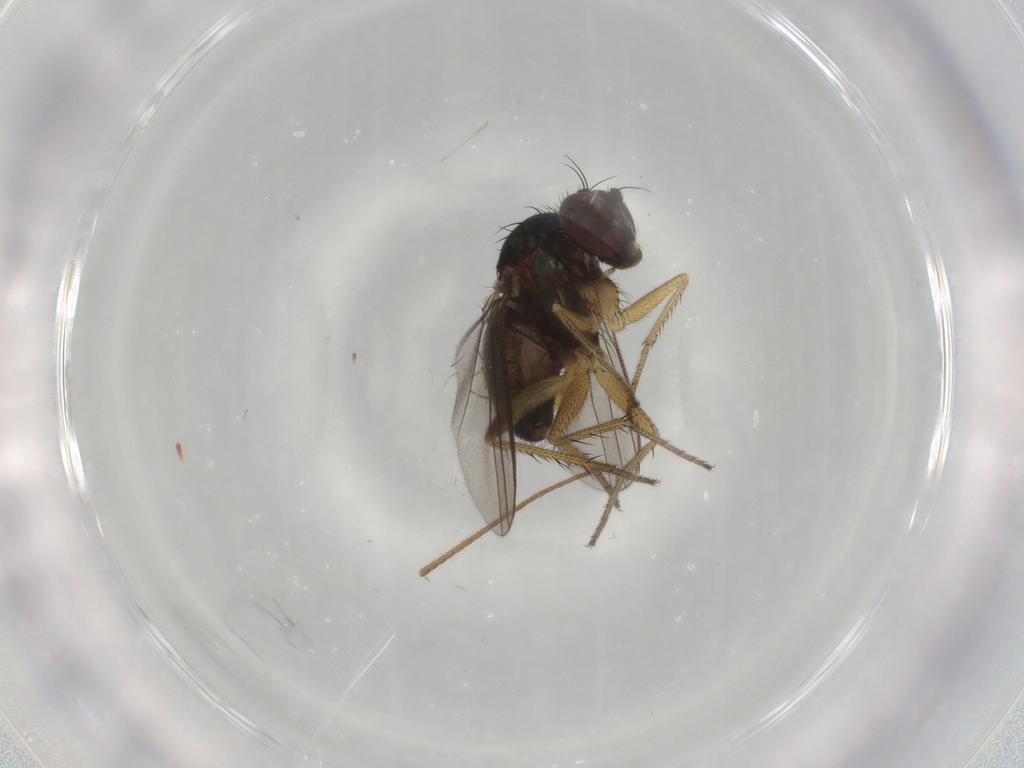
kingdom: Animalia
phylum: Arthropoda
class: Insecta
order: Diptera
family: Dolichopodidae
